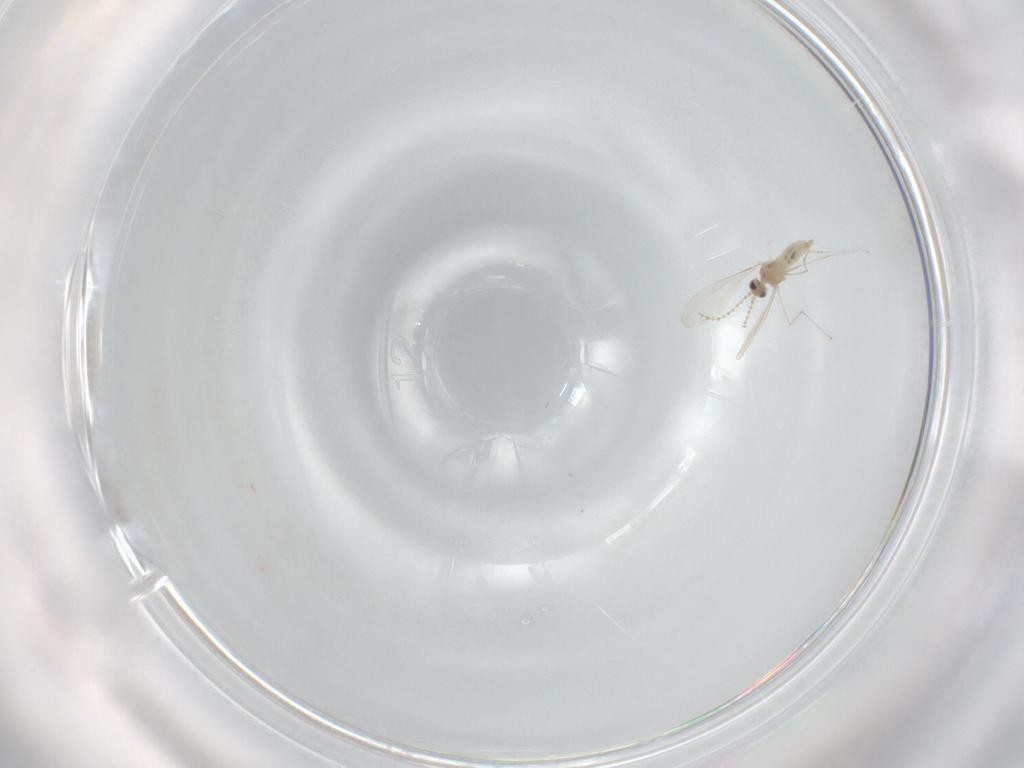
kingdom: Animalia
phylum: Arthropoda
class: Insecta
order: Diptera
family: Cecidomyiidae
